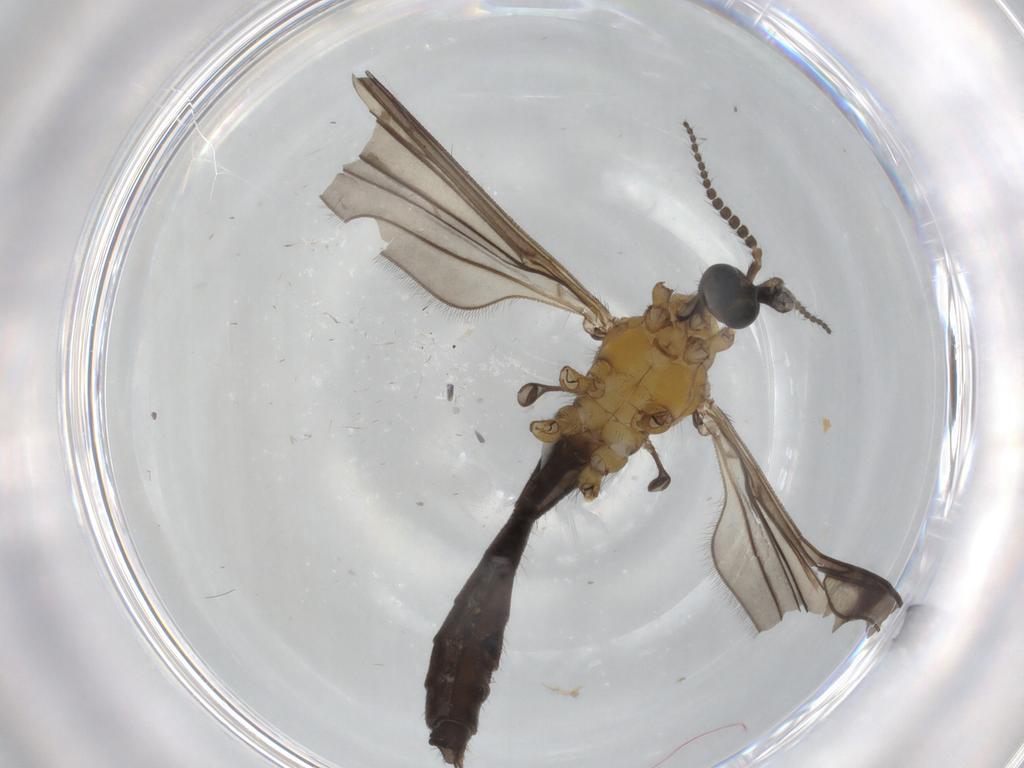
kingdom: Animalia
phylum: Arthropoda
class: Insecta
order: Diptera
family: Limoniidae
